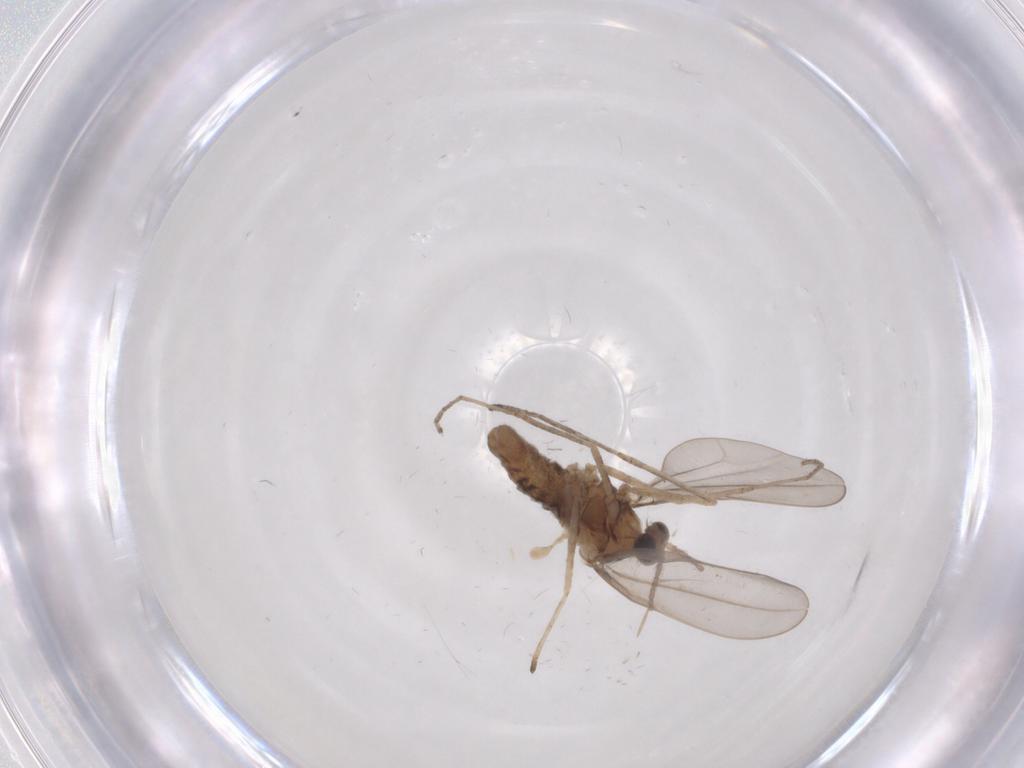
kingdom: Animalia
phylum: Arthropoda
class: Insecta
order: Diptera
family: Cecidomyiidae
